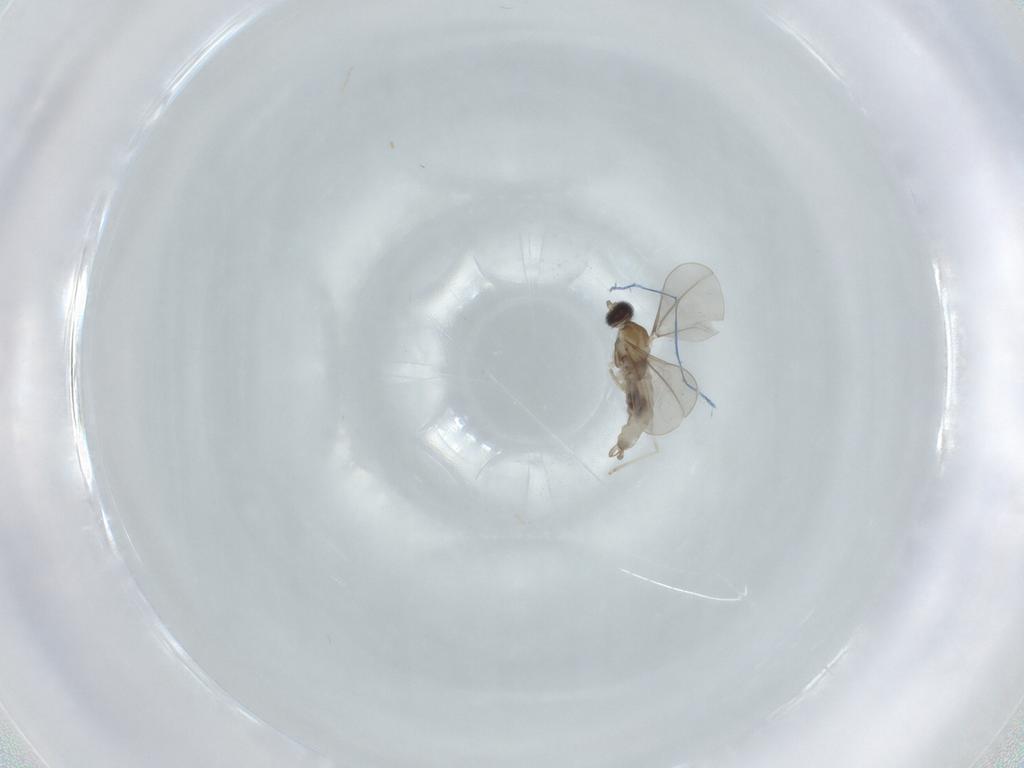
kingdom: Animalia
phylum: Arthropoda
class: Insecta
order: Diptera
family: Cecidomyiidae
